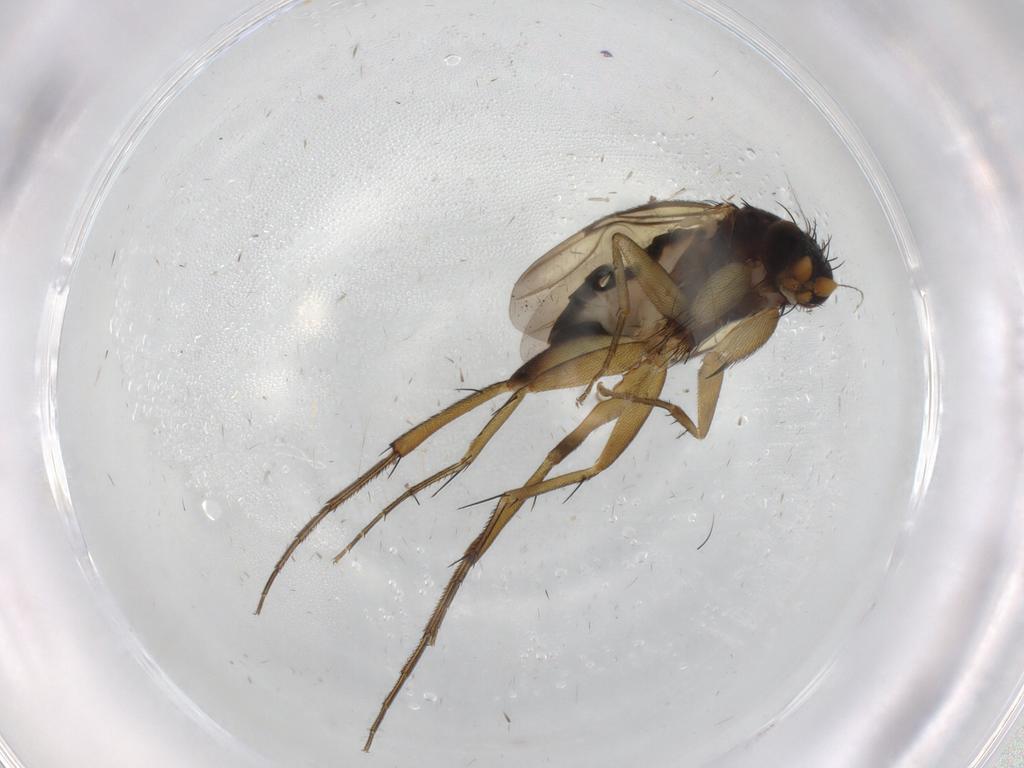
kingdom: Animalia
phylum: Arthropoda
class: Insecta
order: Diptera
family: Phoridae
